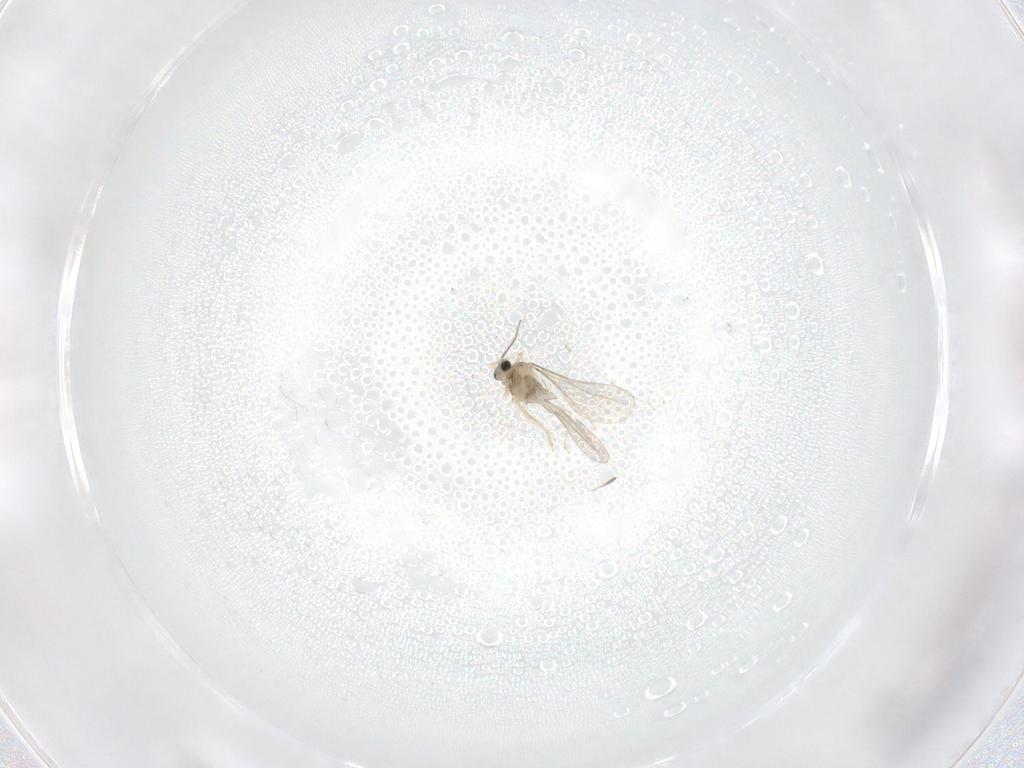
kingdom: Animalia
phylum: Arthropoda
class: Insecta
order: Diptera
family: Cecidomyiidae
